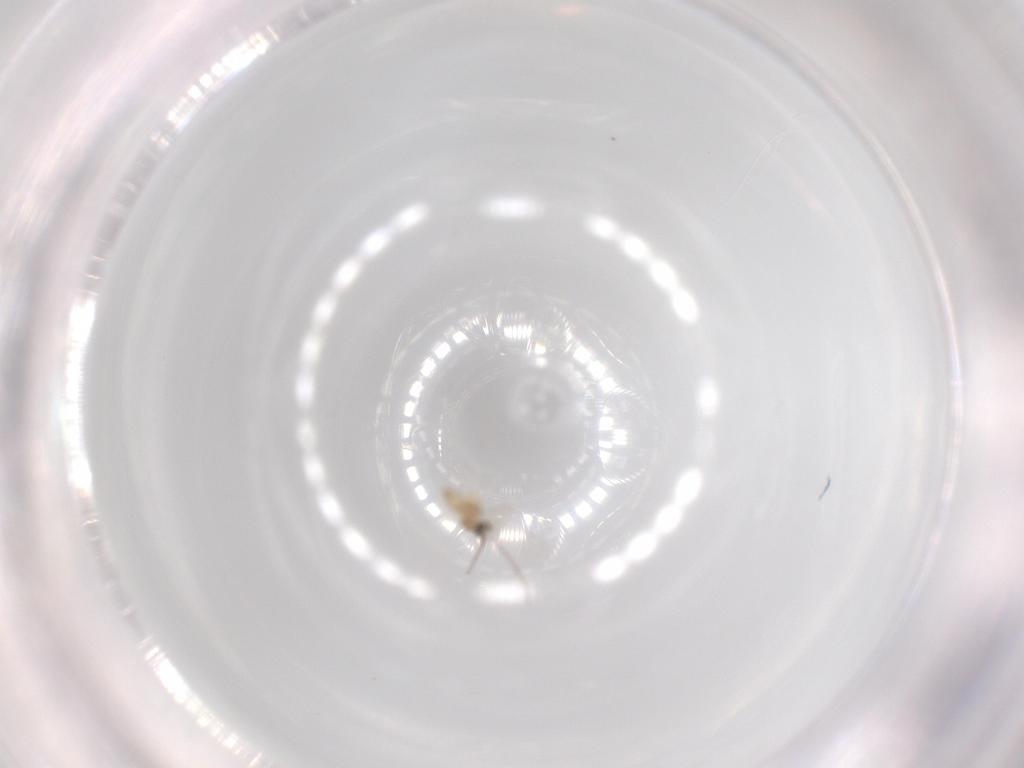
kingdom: Animalia
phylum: Arthropoda
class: Insecta
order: Diptera
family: Cecidomyiidae
